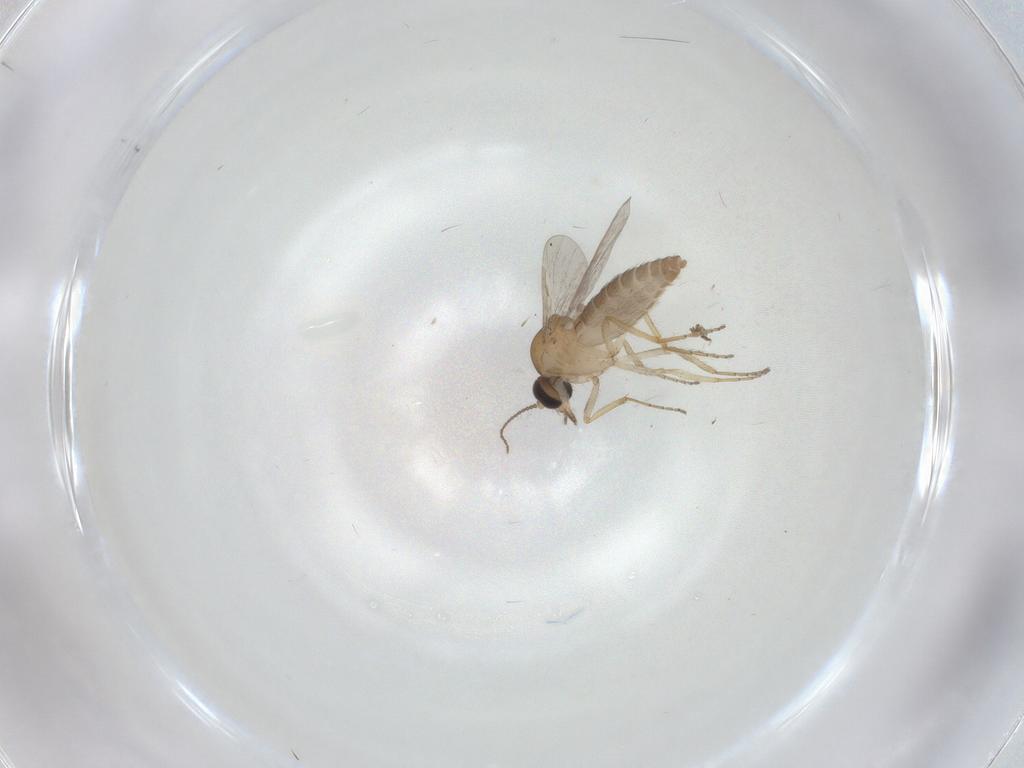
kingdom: Animalia
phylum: Arthropoda
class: Insecta
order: Diptera
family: Ceratopogonidae
